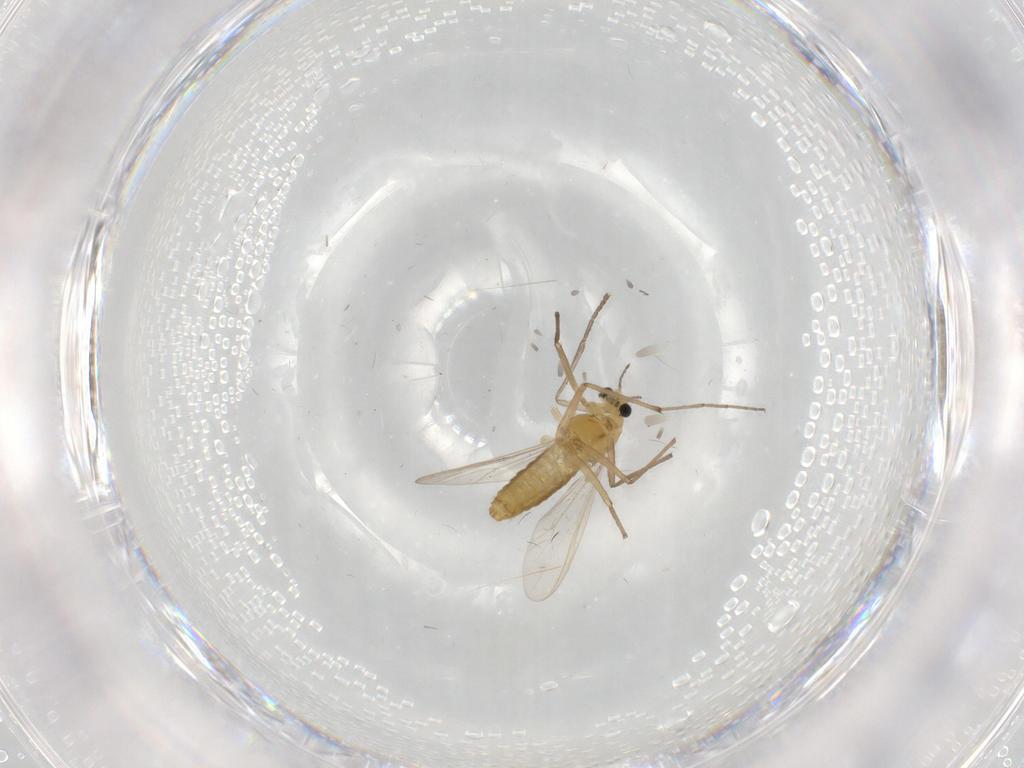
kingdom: Animalia
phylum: Arthropoda
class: Insecta
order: Diptera
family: Chironomidae
